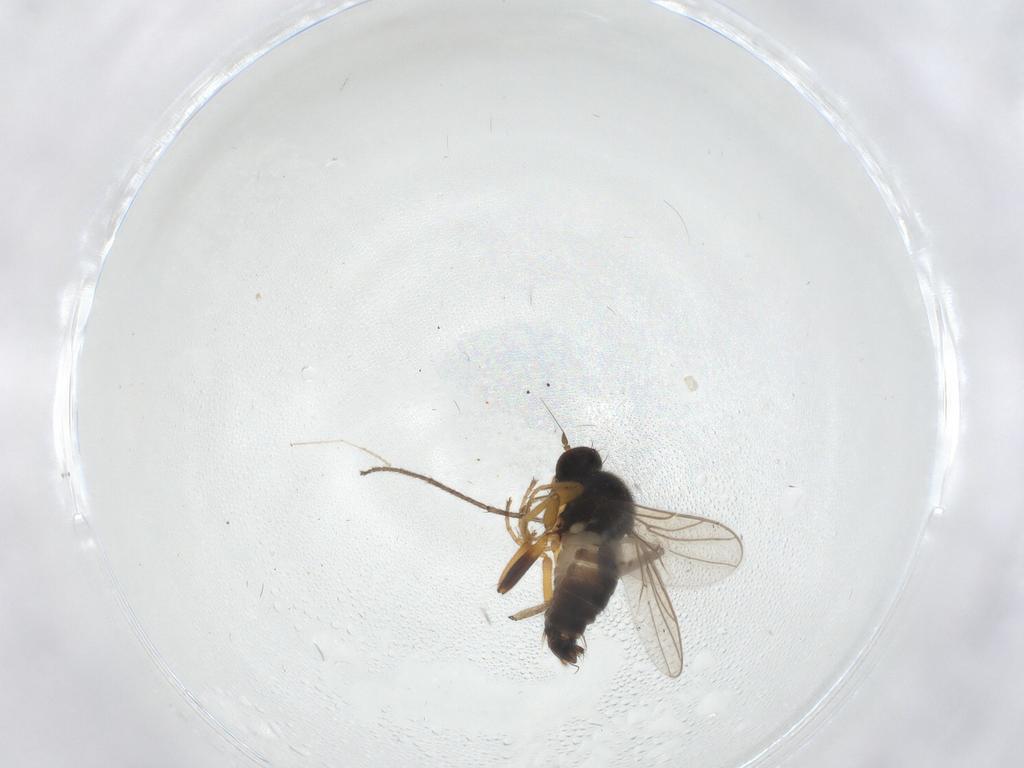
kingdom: Animalia
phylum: Arthropoda
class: Insecta
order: Diptera
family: Hybotidae
